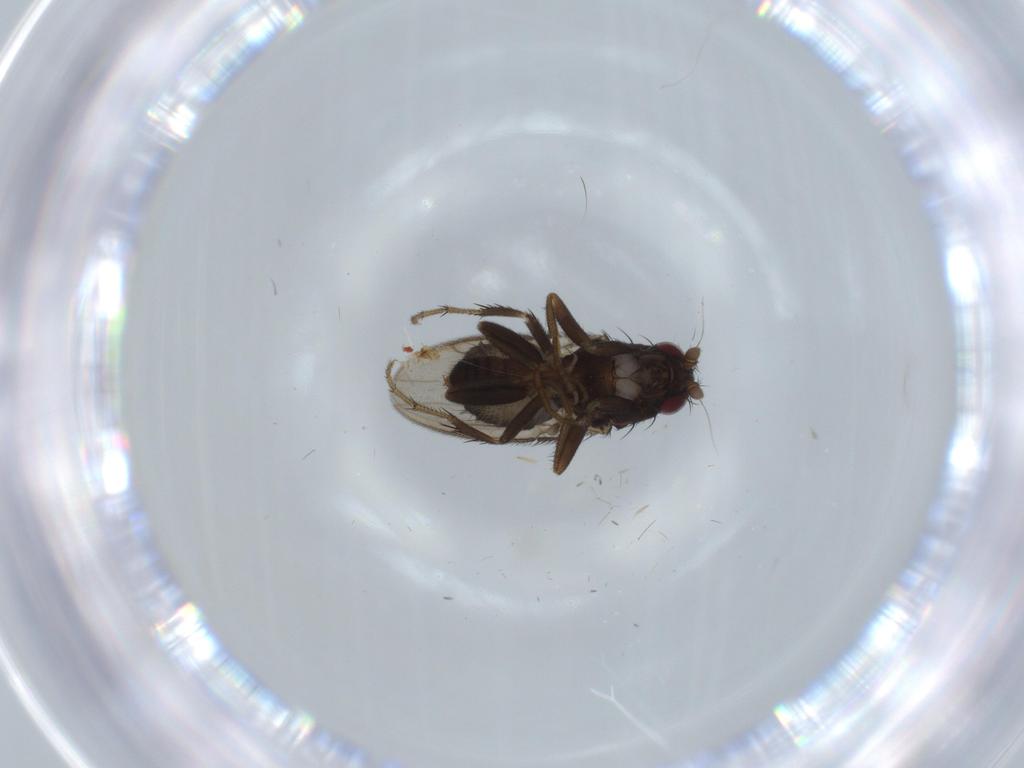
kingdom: Animalia
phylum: Arthropoda
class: Insecta
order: Diptera
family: Sphaeroceridae
